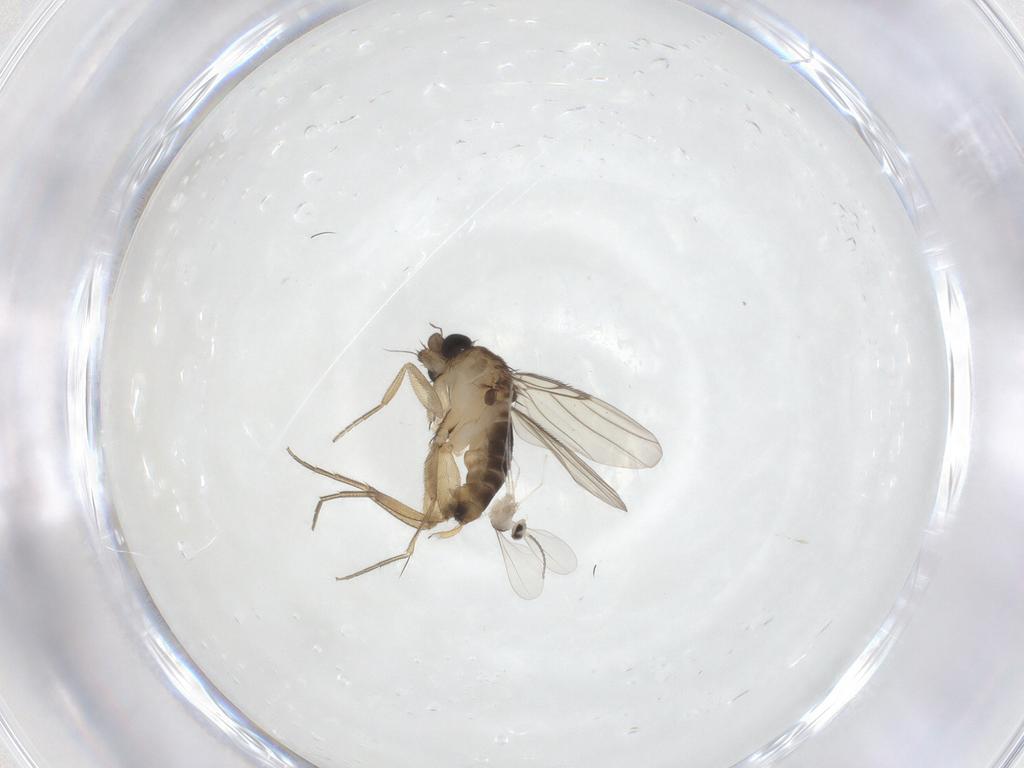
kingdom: Animalia
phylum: Arthropoda
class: Insecta
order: Diptera
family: Cecidomyiidae
